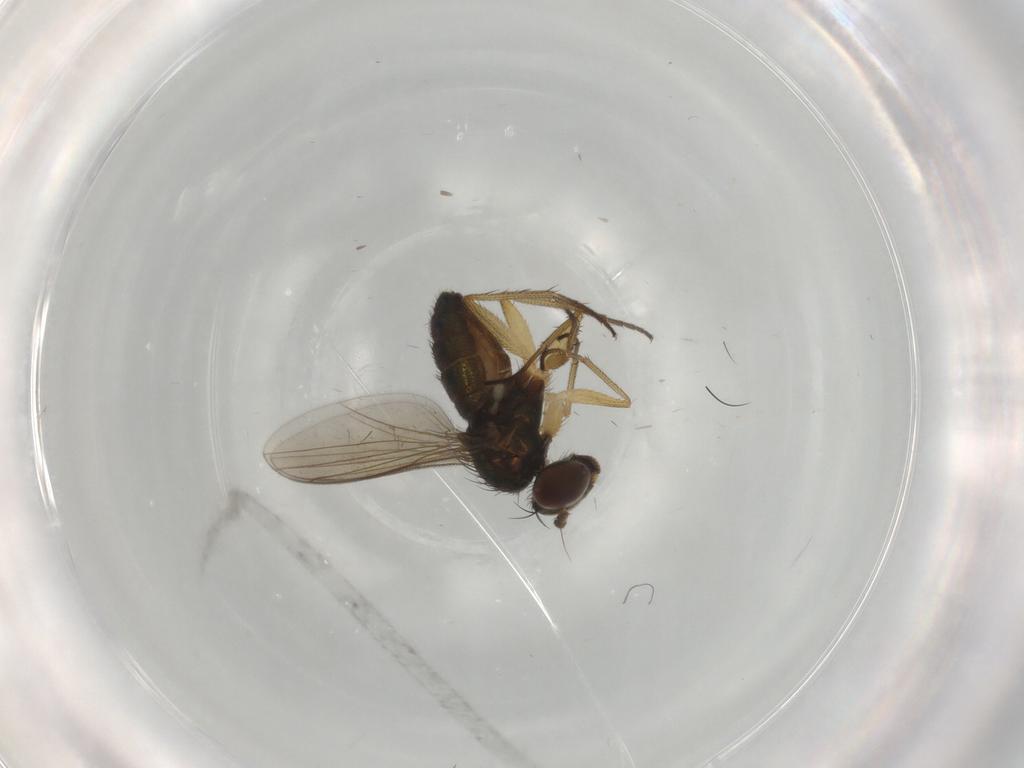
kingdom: Animalia
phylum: Arthropoda
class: Insecta
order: Diptera
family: Dolichopodidae
